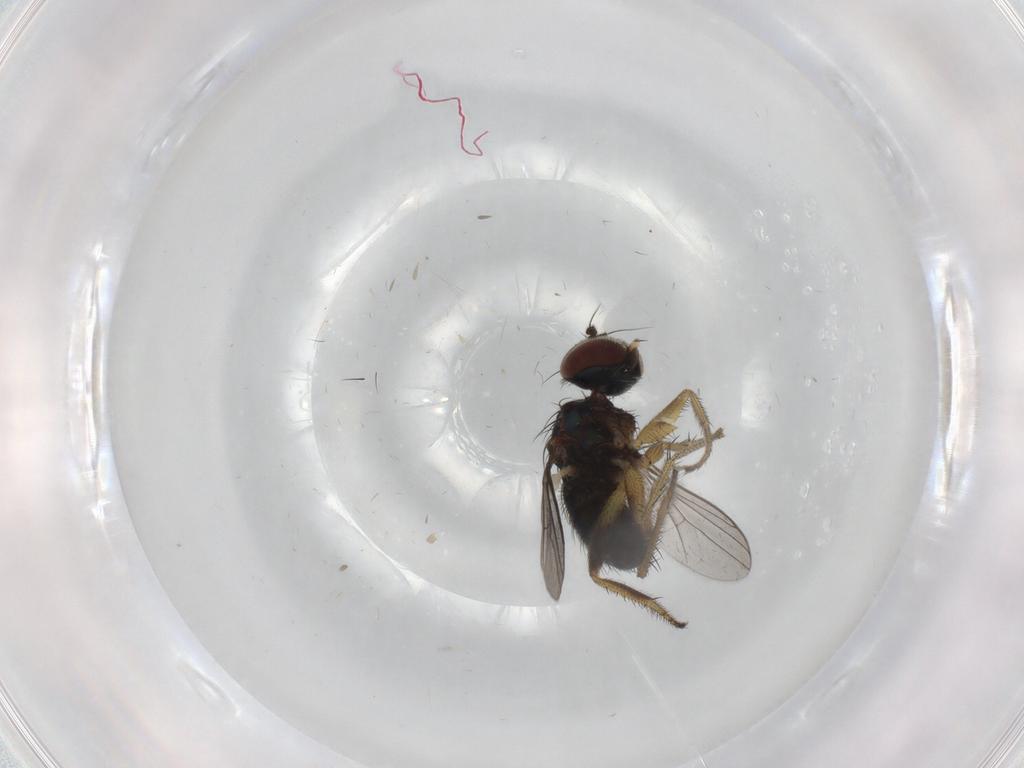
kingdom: Animalia
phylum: Arthropoda
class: Insecta
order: Diptera
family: Dolichopodidae
